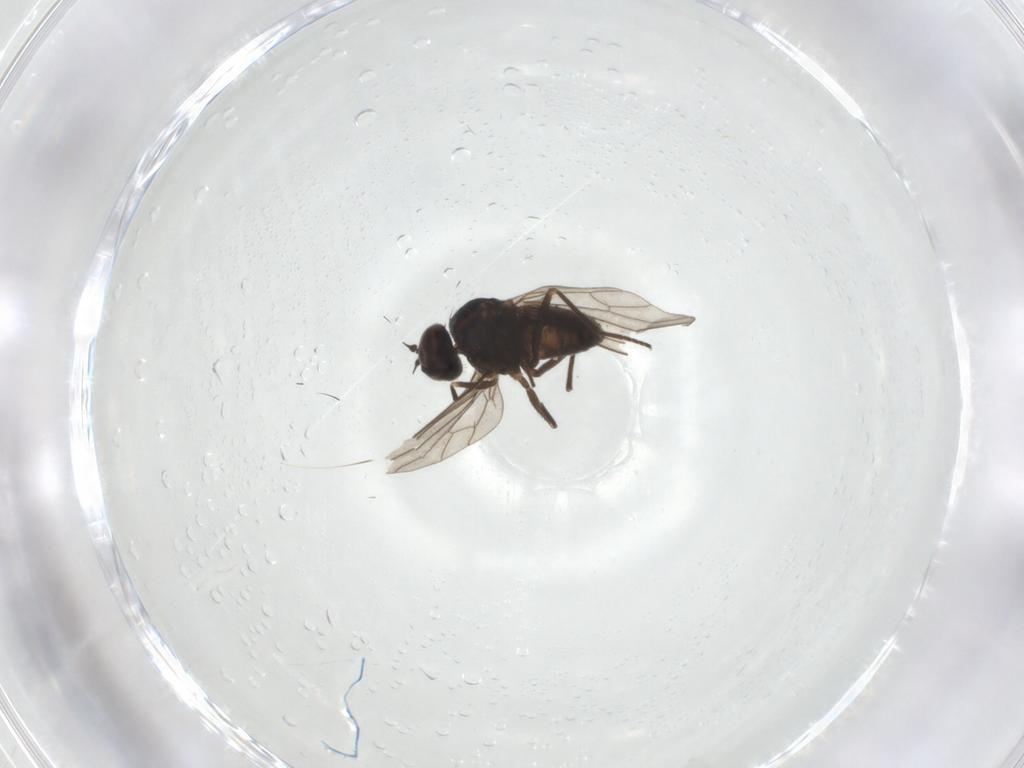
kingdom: Animalia
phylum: Arthropoda
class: Insecta
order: Diptera
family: Dolichopodidae
